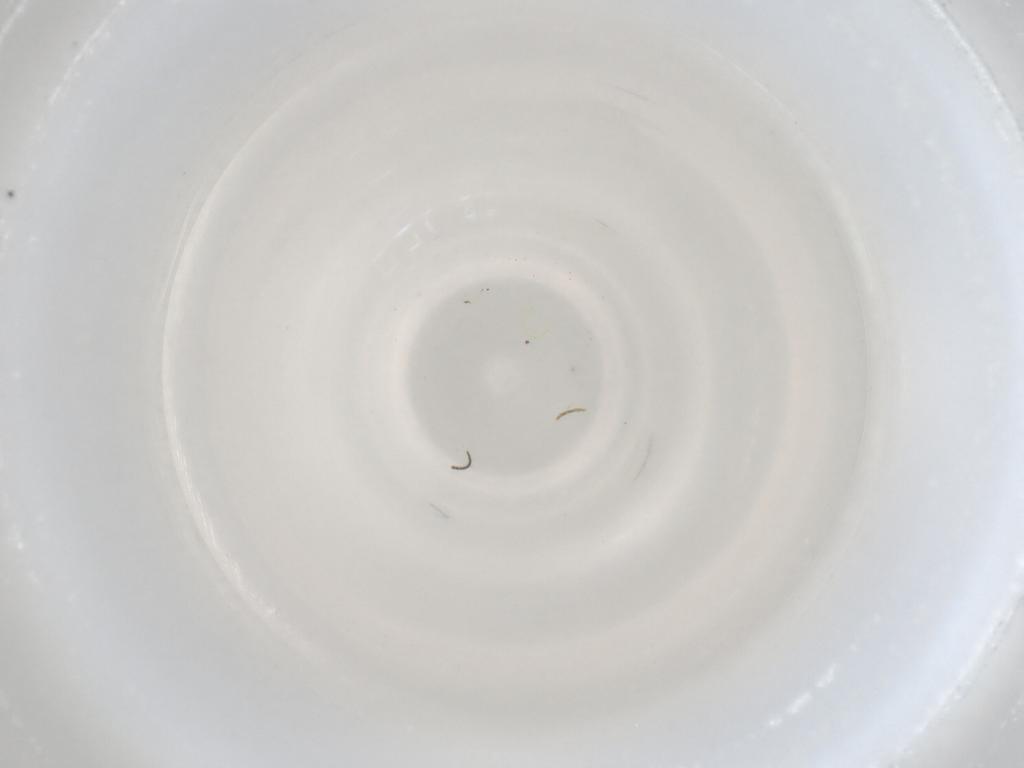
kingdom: Animalia
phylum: Arthropoda
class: Insecta
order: Diptera
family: Psychodidae
